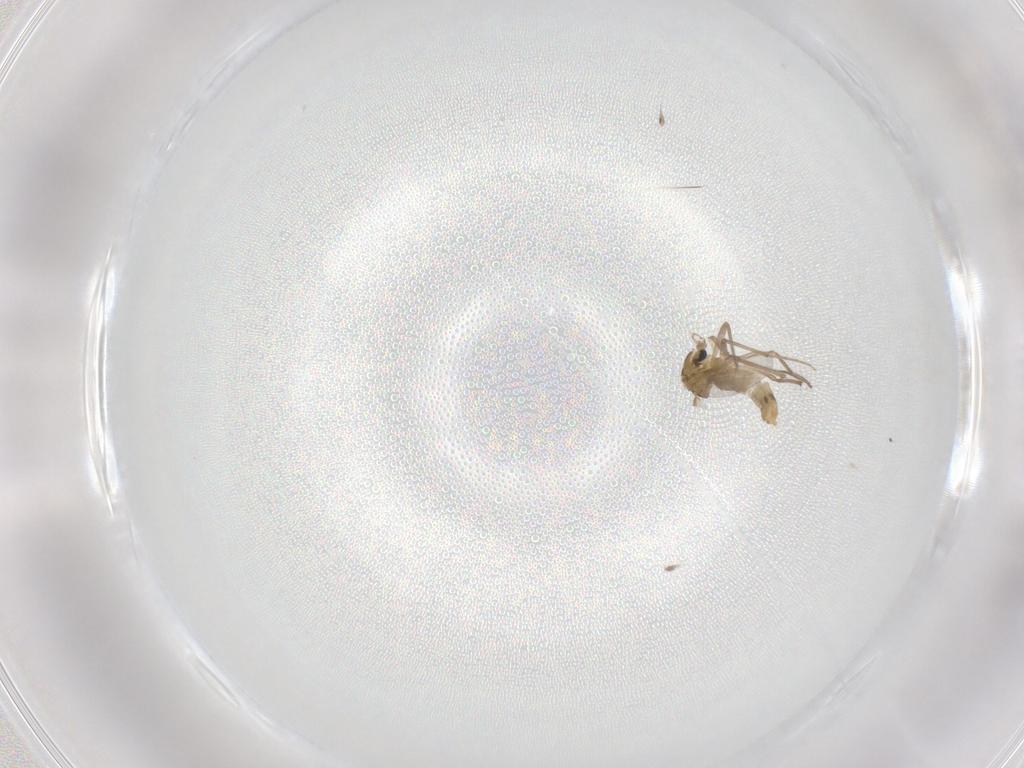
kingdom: Animalia
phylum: Arthropoda
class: Insecta
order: Diptera
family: Chironomidae
